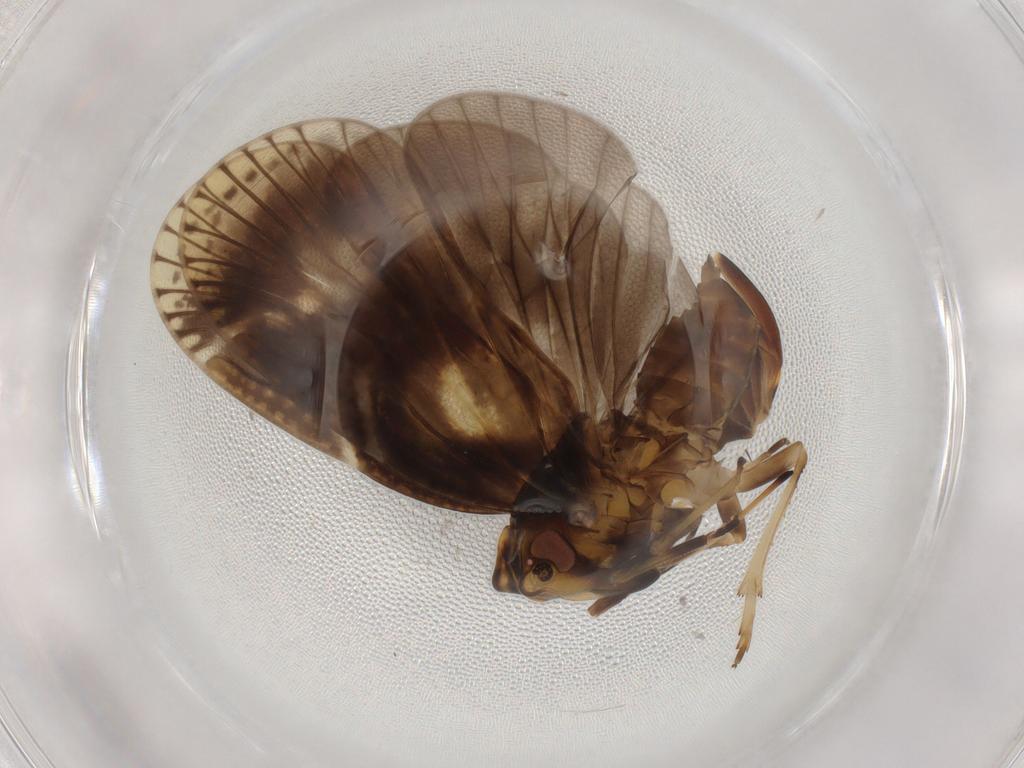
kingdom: Animalia
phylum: Arthropoda
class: Insecta
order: Hemiptera
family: Cixiidae
